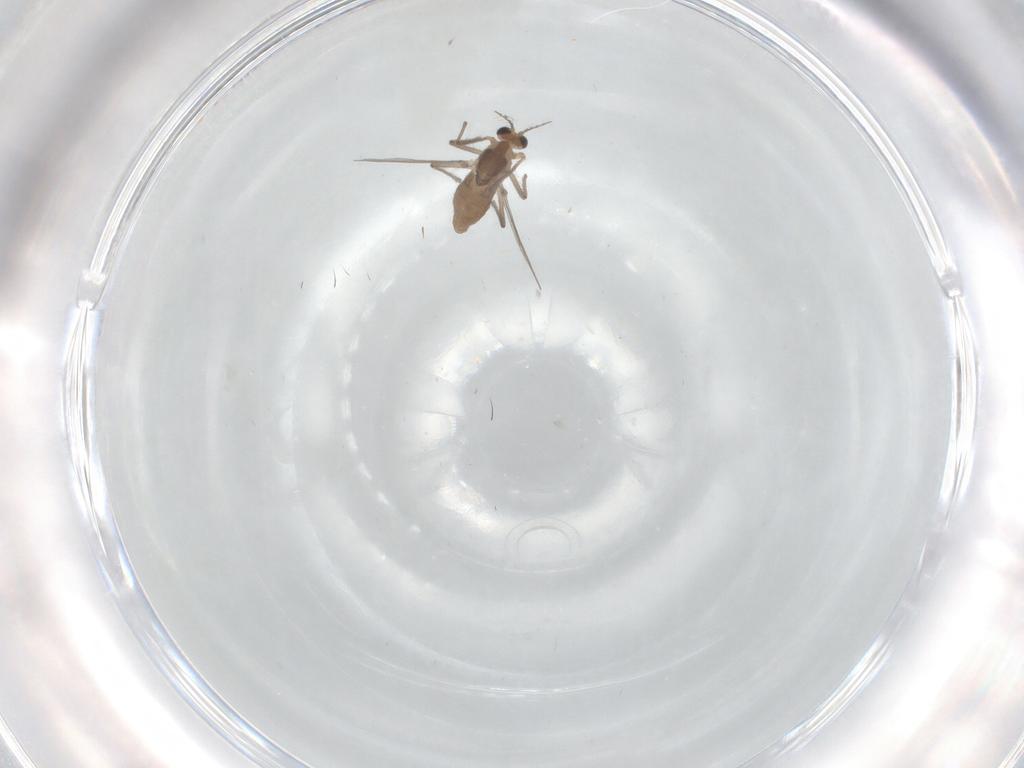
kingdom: Animalia
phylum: Arthropoda
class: Insecta
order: Diptera
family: Chironomidae
